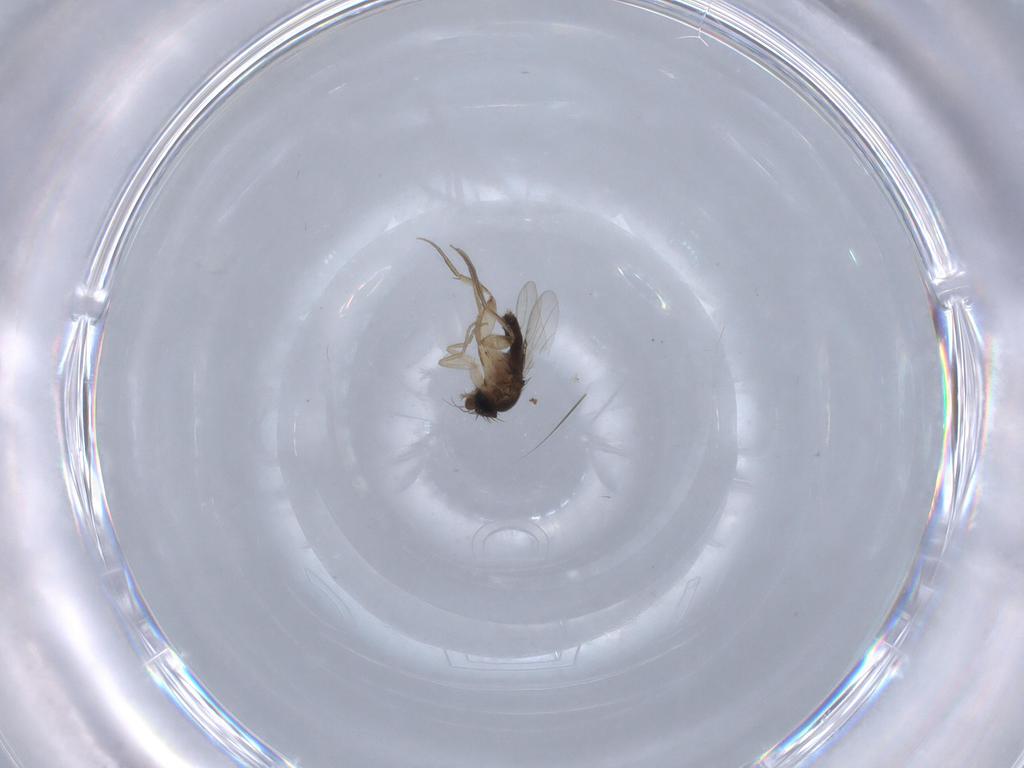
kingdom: Animalia
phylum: Arthropoda
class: Insecta
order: Diptera
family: Phoridae
